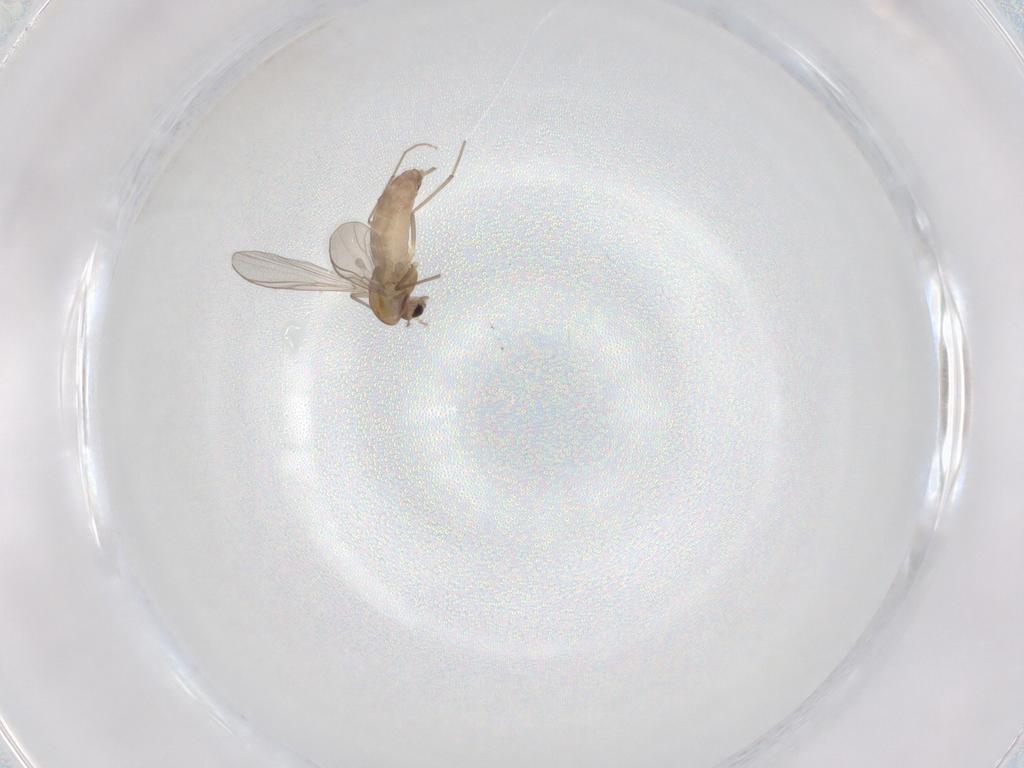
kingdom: Animalia
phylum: Arthropoda
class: Insecta
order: Diptera
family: Chironomidae
